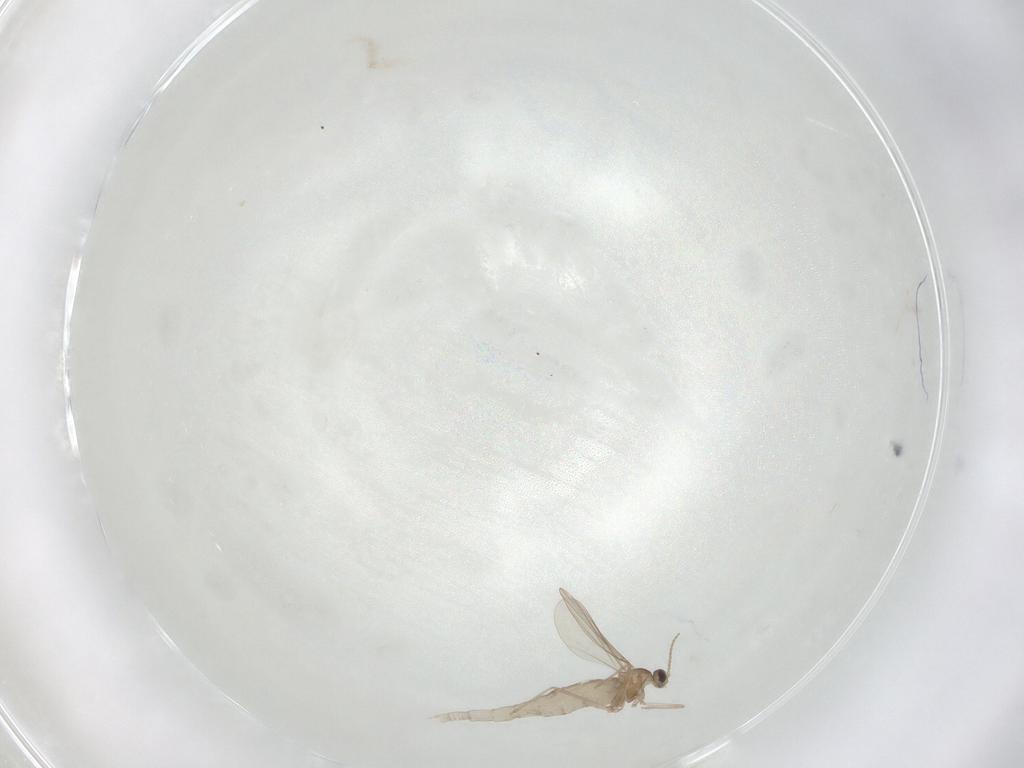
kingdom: Animalia
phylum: Arthropoda
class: Insecta
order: Diptera
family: Cecidomyiidae
